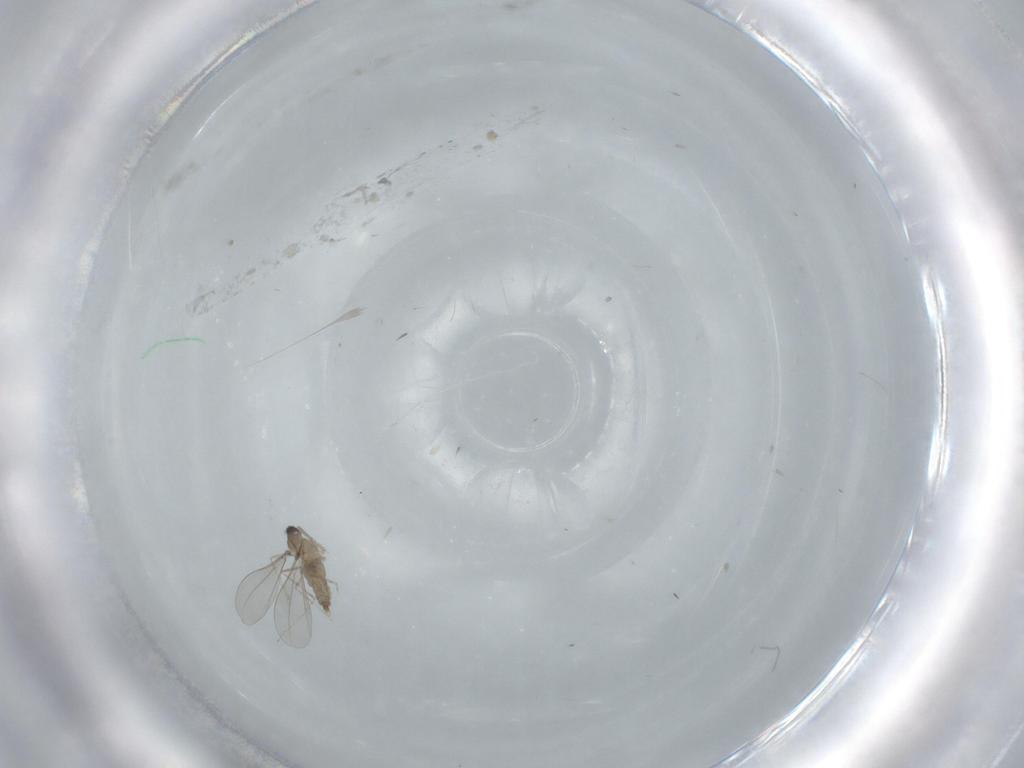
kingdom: Animalia
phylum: Arthropoda
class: Insecta
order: Diptera
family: Cecidomyiidae
